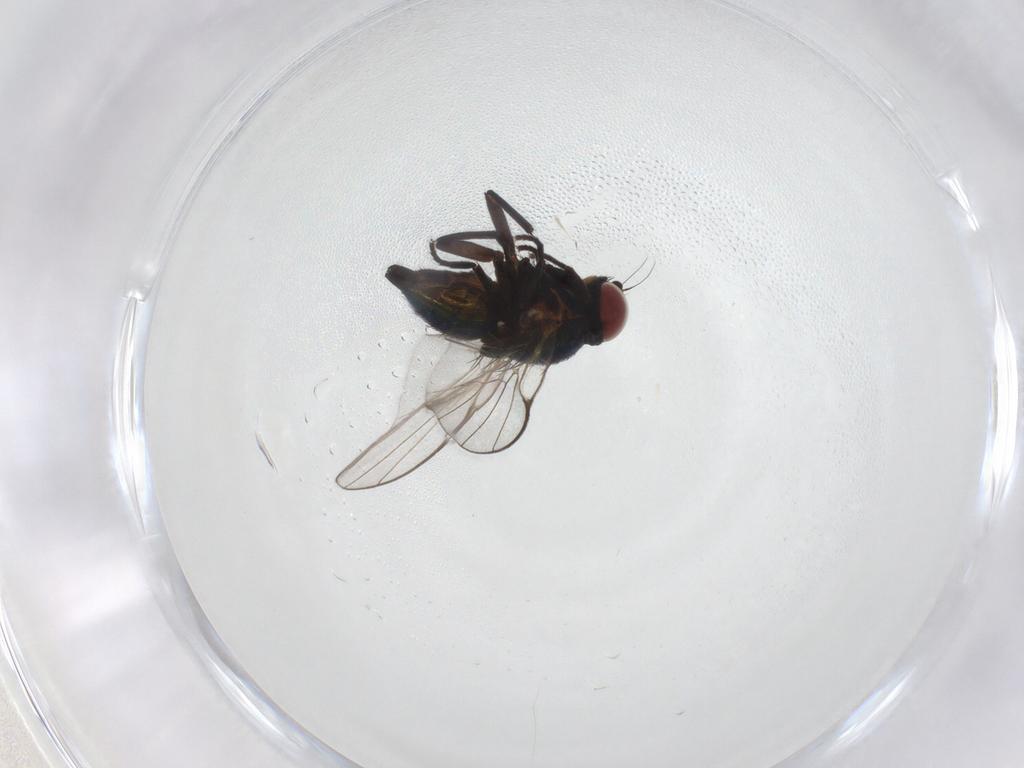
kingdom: Animalia
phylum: Arthropoda
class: Insecta
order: Diptera
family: Agromyzidae
